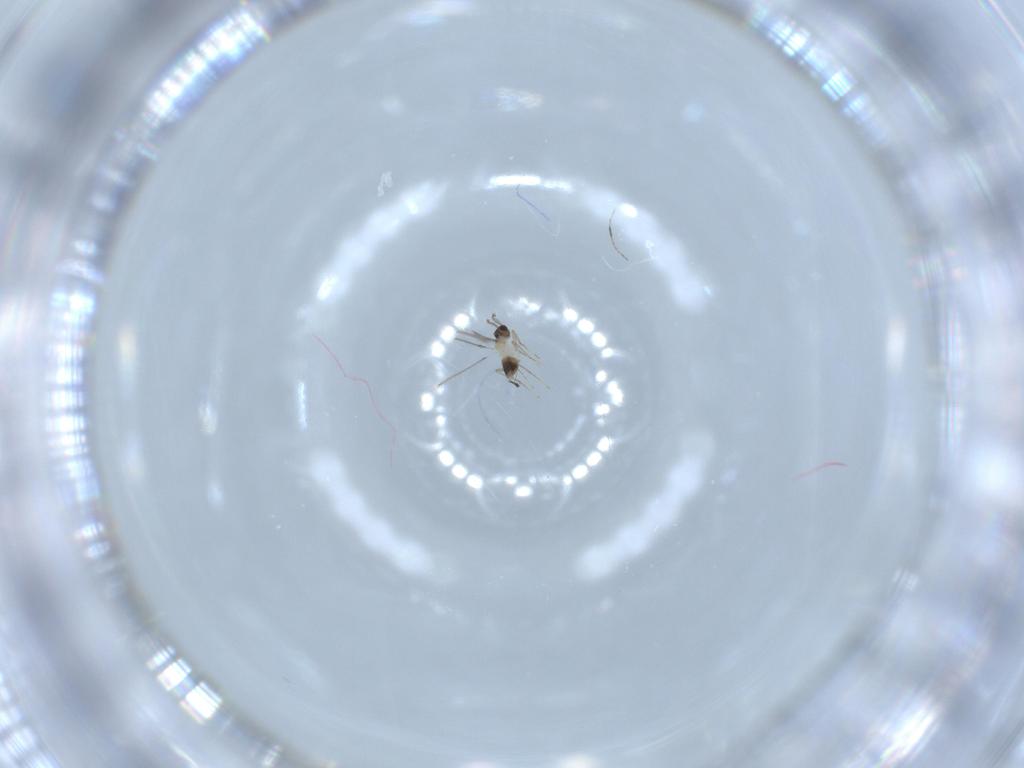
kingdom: Animalia
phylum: Arthropoda
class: Insecta
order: Hymenoptera
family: Mymaridae
